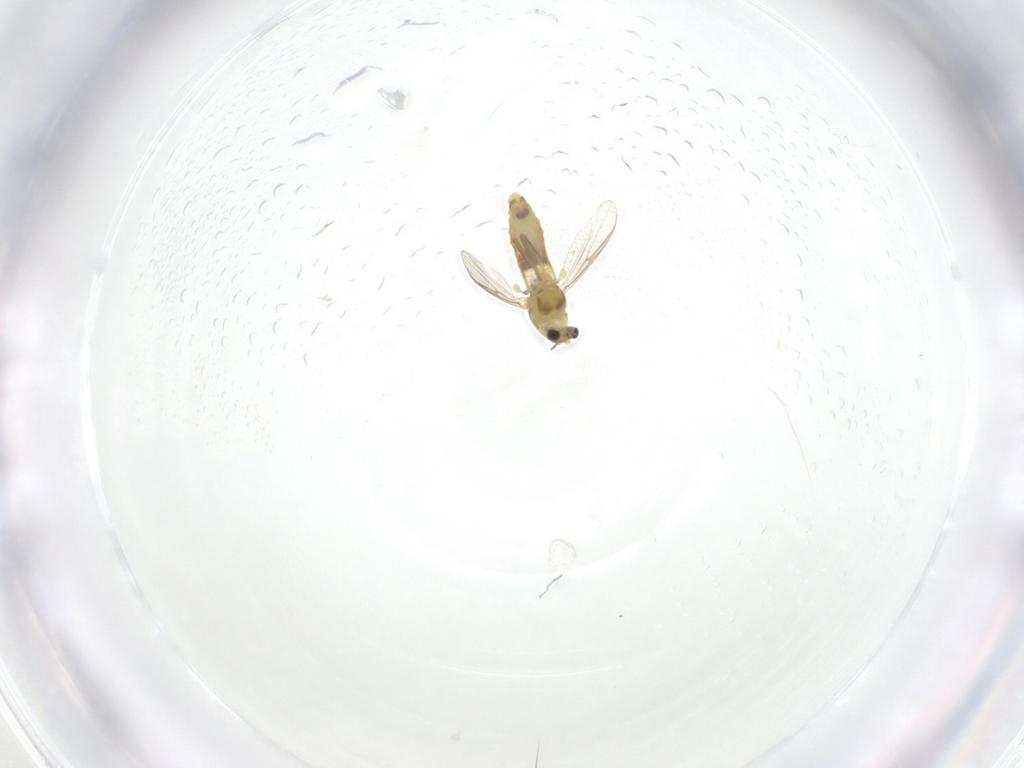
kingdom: Animalia
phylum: Arthropoda
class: Insecta
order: Diptera
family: Chironomidae
